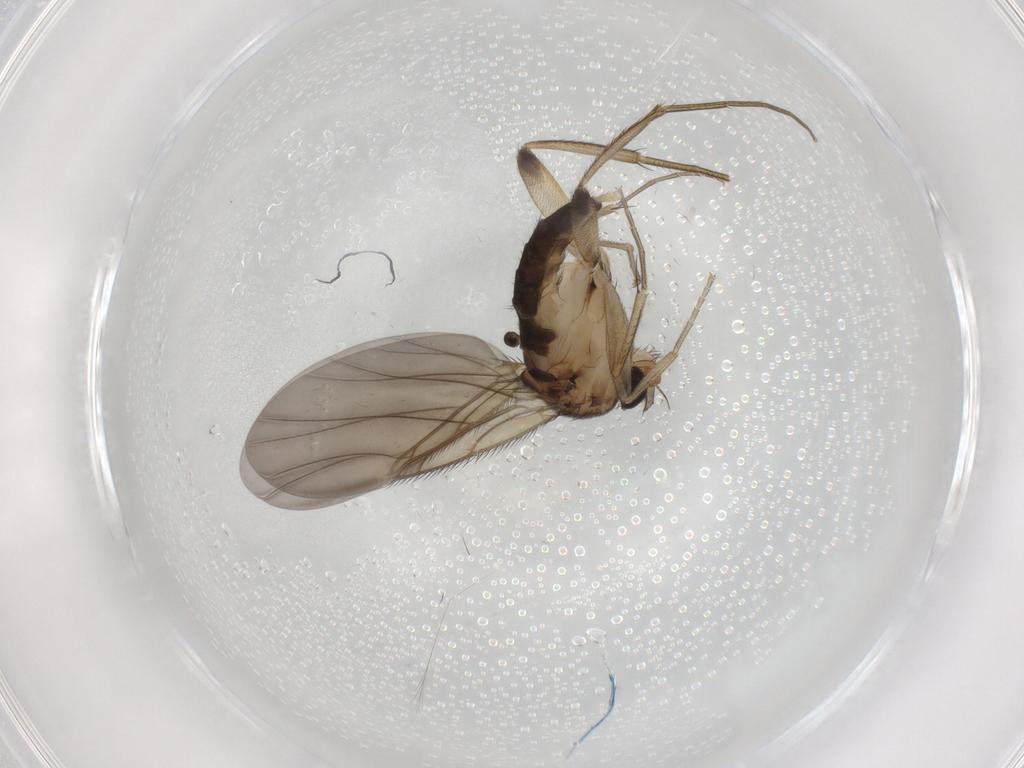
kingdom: Animalia
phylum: Arthropoda
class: Insecta
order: Diptera
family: Phoridae
